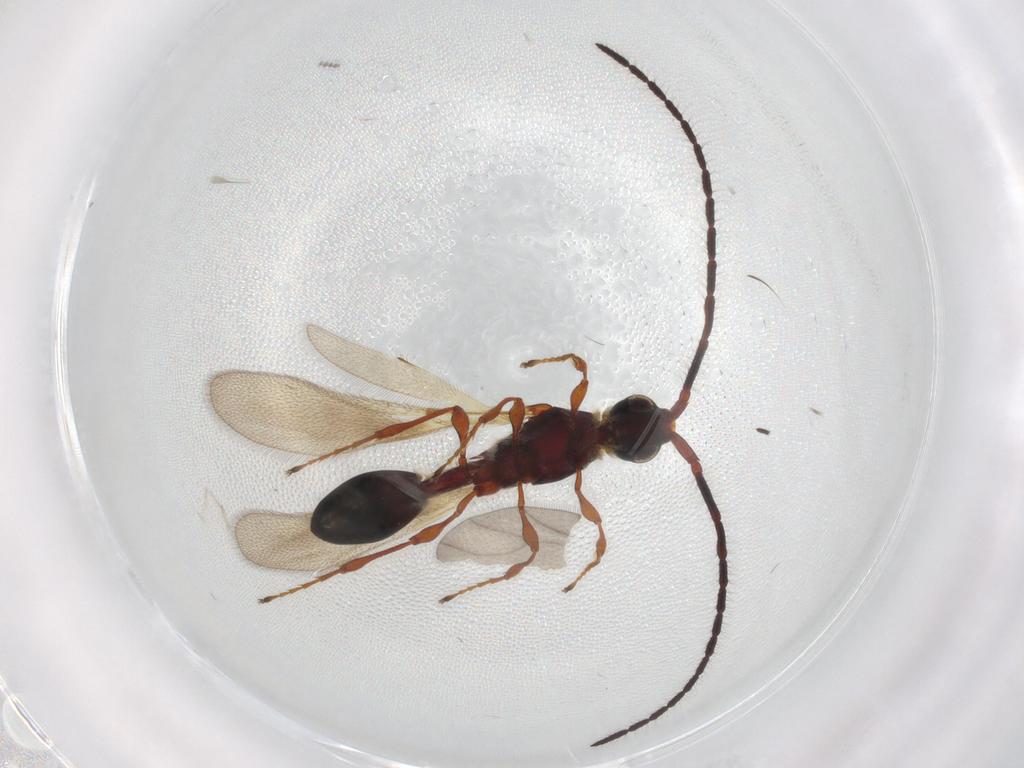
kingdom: Animalia
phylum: Arthropoda
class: Insecta
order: Hymenoptera
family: Diapriidae
